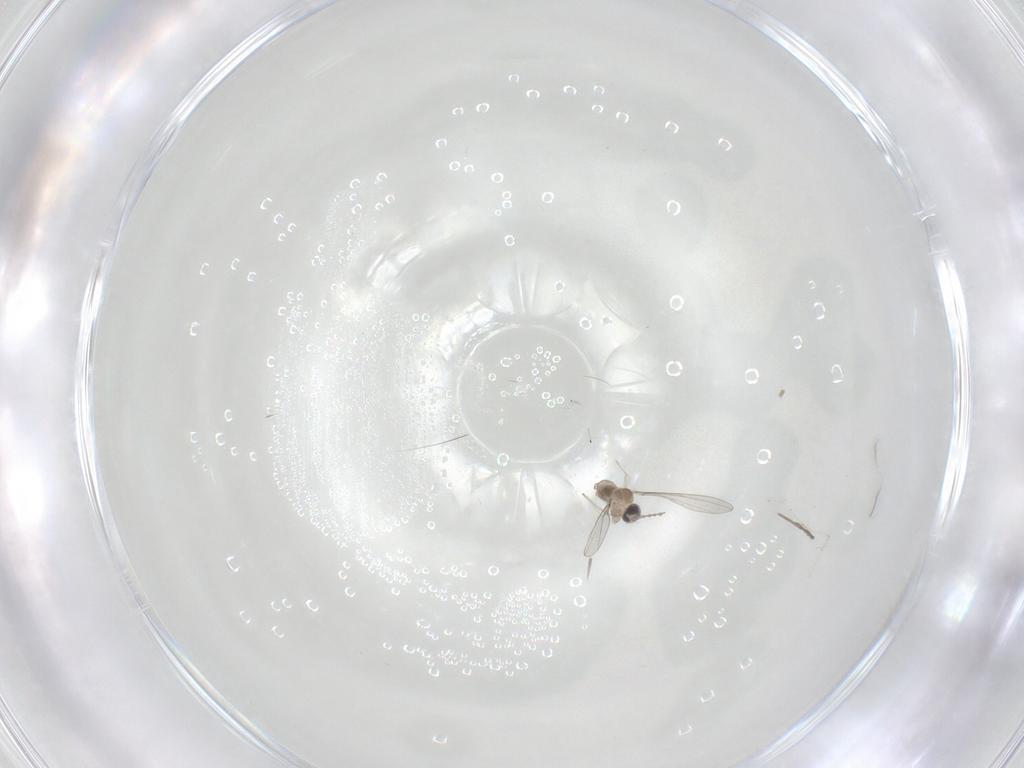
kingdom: Animalia
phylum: Arthropoda
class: Insecta
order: Diptera
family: Cecidomyiidae
